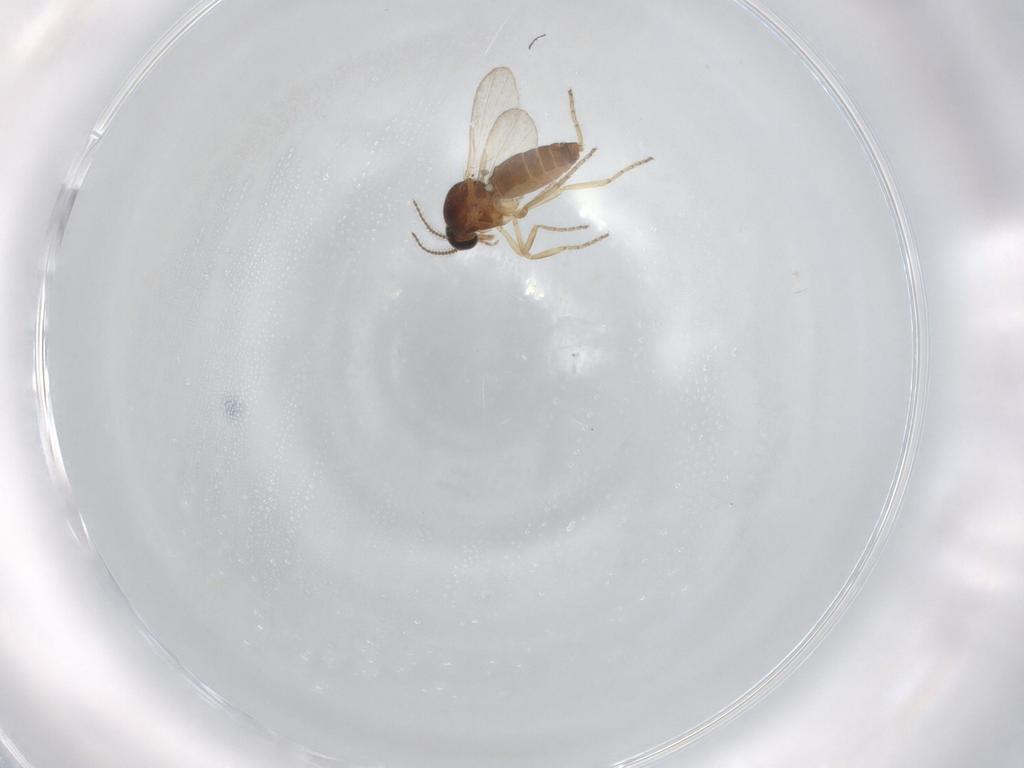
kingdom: Animalia
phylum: Arthropoda
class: Insecta
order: Diptera
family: Ceratopogonidae
